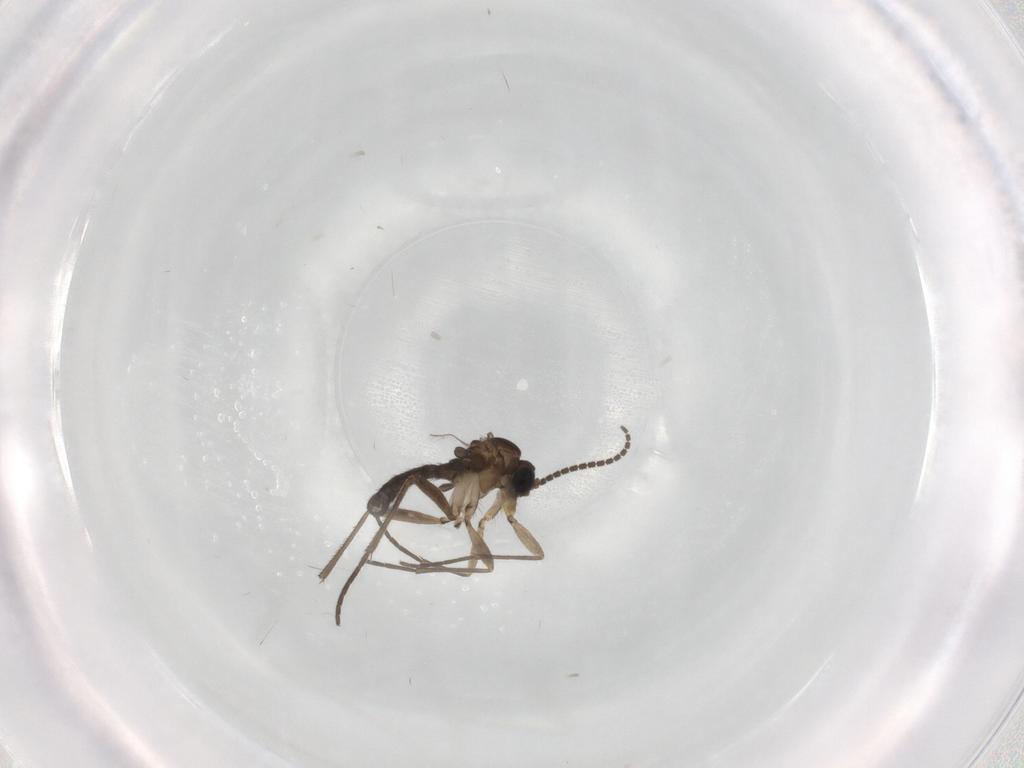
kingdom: Animalia
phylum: Arthropoda
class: Insecta
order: Diptera
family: Sciaridae
